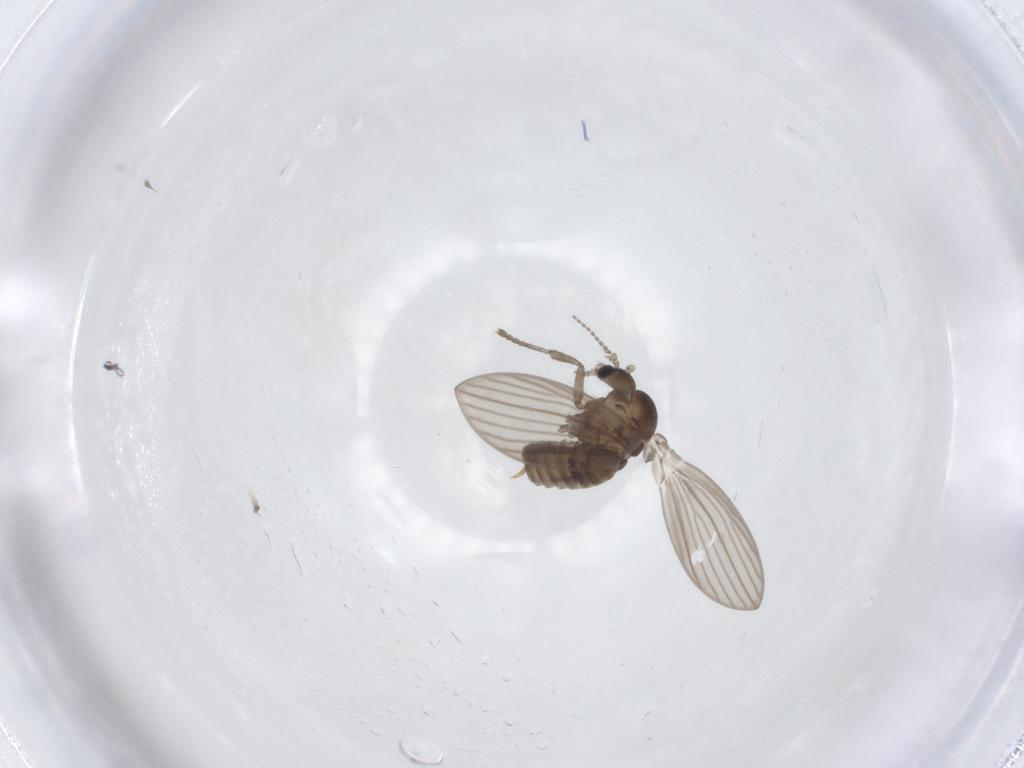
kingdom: Animalia
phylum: Arthropoda
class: Insecta
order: Diptera
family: Psychodidae
